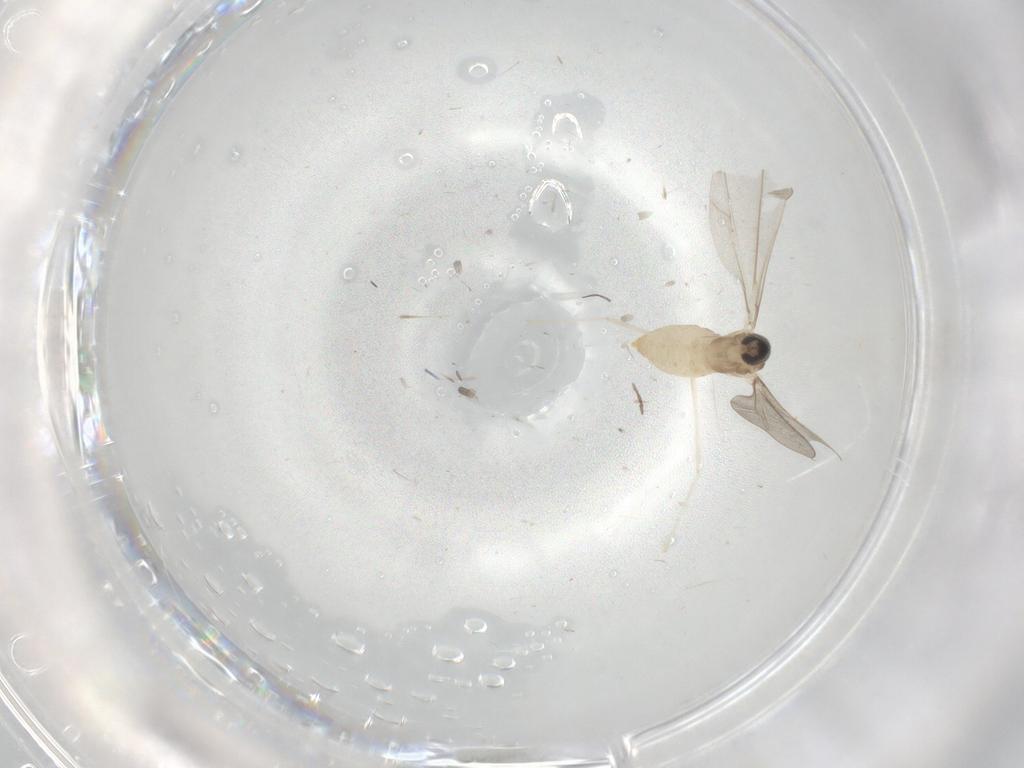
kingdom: Animalia
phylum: Arthropoda
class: Insecta
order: Diptera
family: Cecidomyiidae
